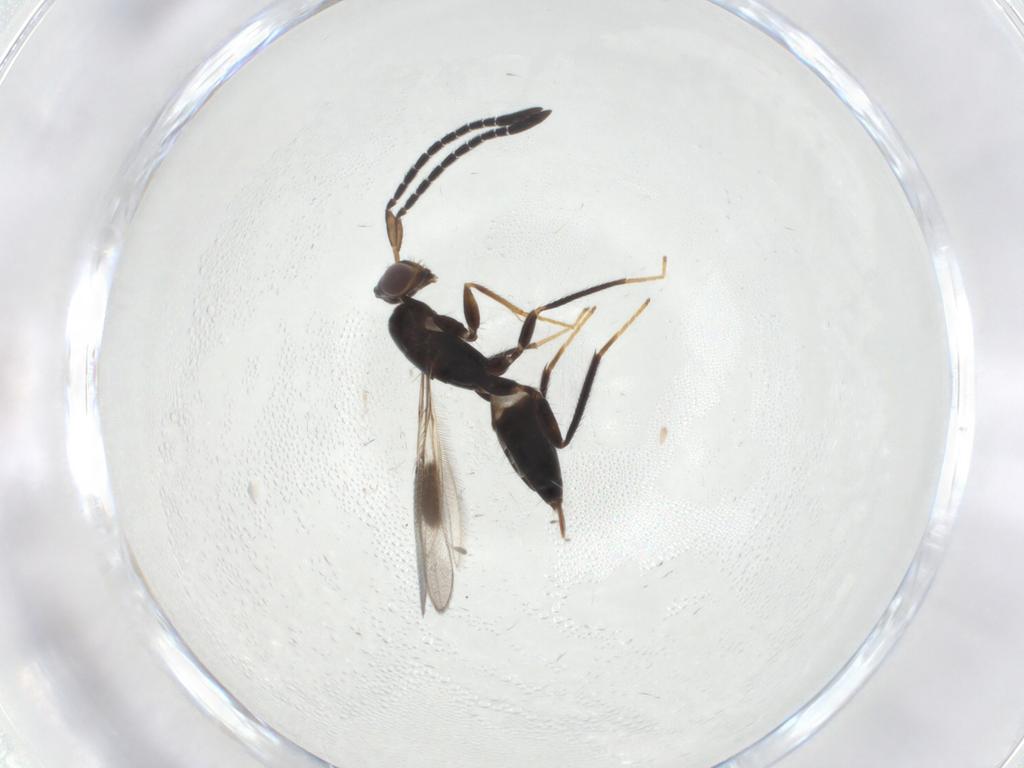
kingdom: Animalia
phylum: Arthropoda
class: Insecta
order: Hymenoptera
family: Mymaridae
